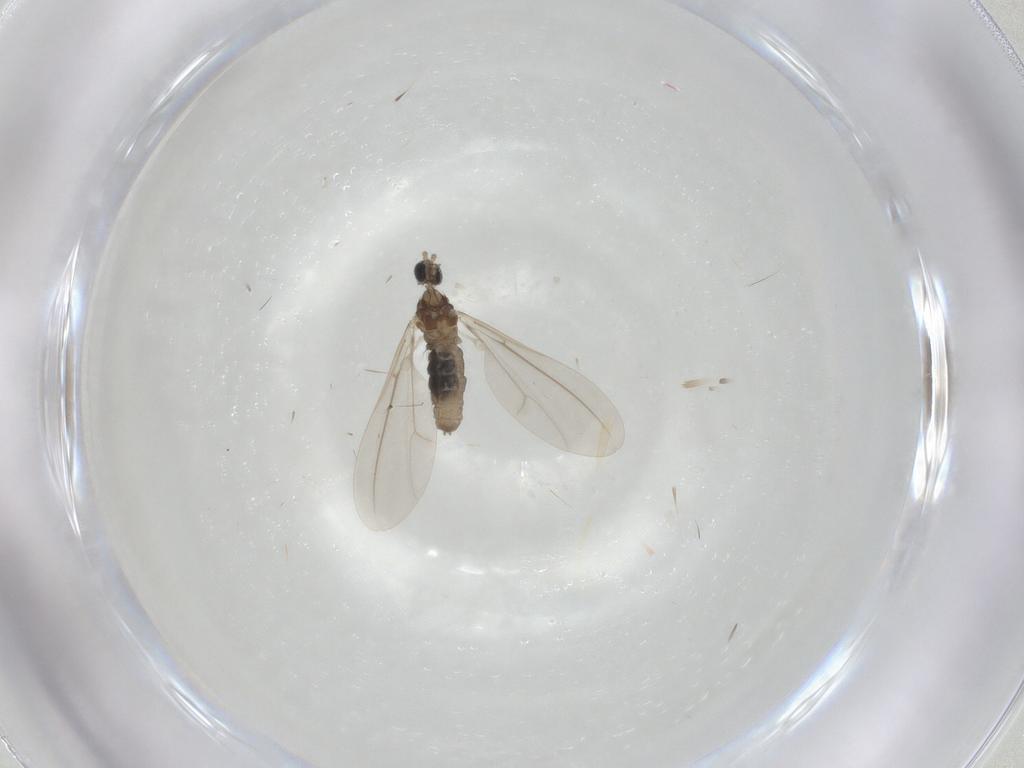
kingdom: Animalia
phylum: Arthropoda
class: Insecta
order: Diptera
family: Cecidomyiidae
